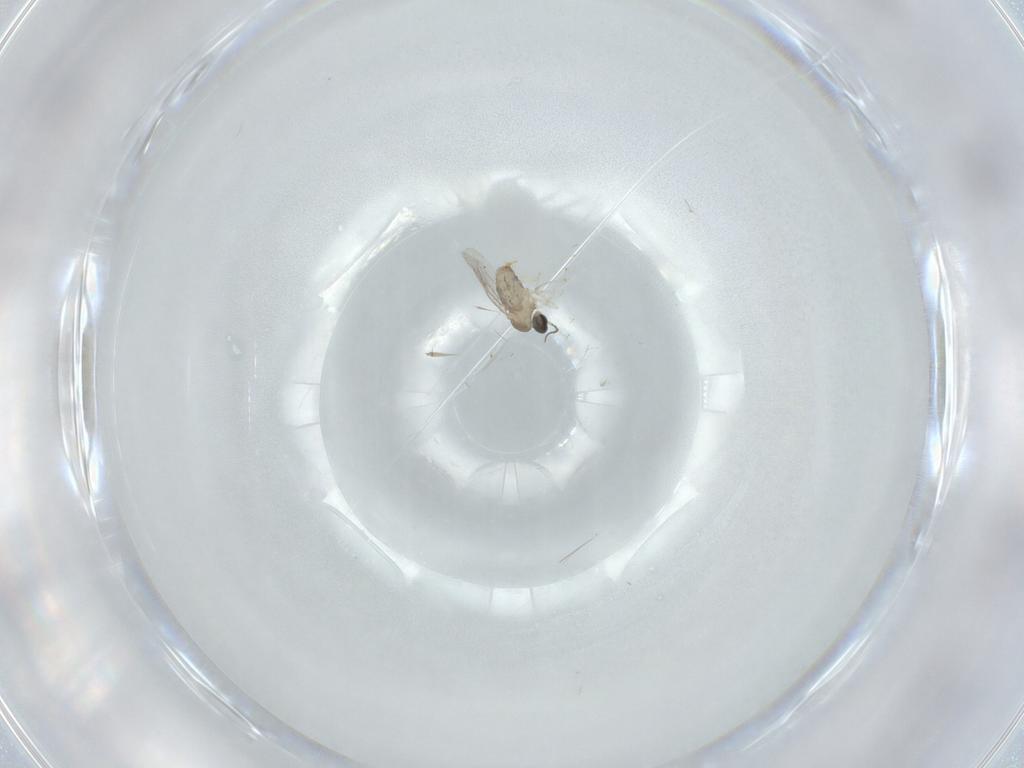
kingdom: Animalia
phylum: Arthropoda
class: Insecta
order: Diptera
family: Cecidomyiidae
